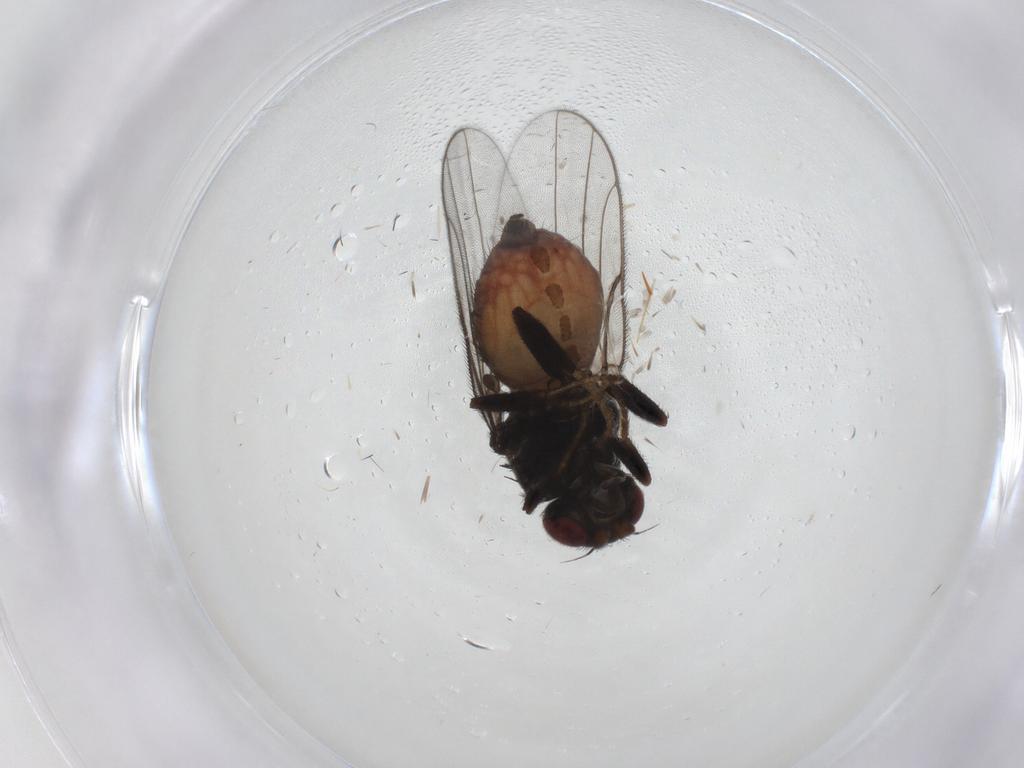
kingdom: Animalia
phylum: Arthropoda
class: Insecta
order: Diptera
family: Chloropidae
